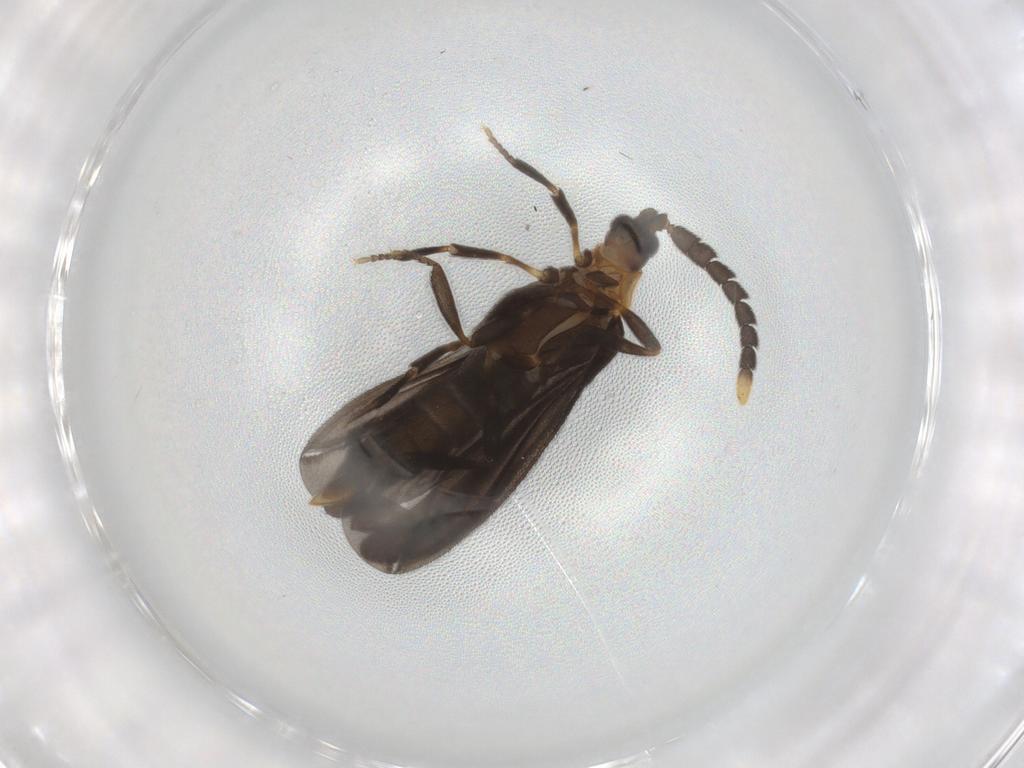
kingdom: Animalia
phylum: Arthropoda
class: Insecta
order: Coleoptera
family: Lycidae
